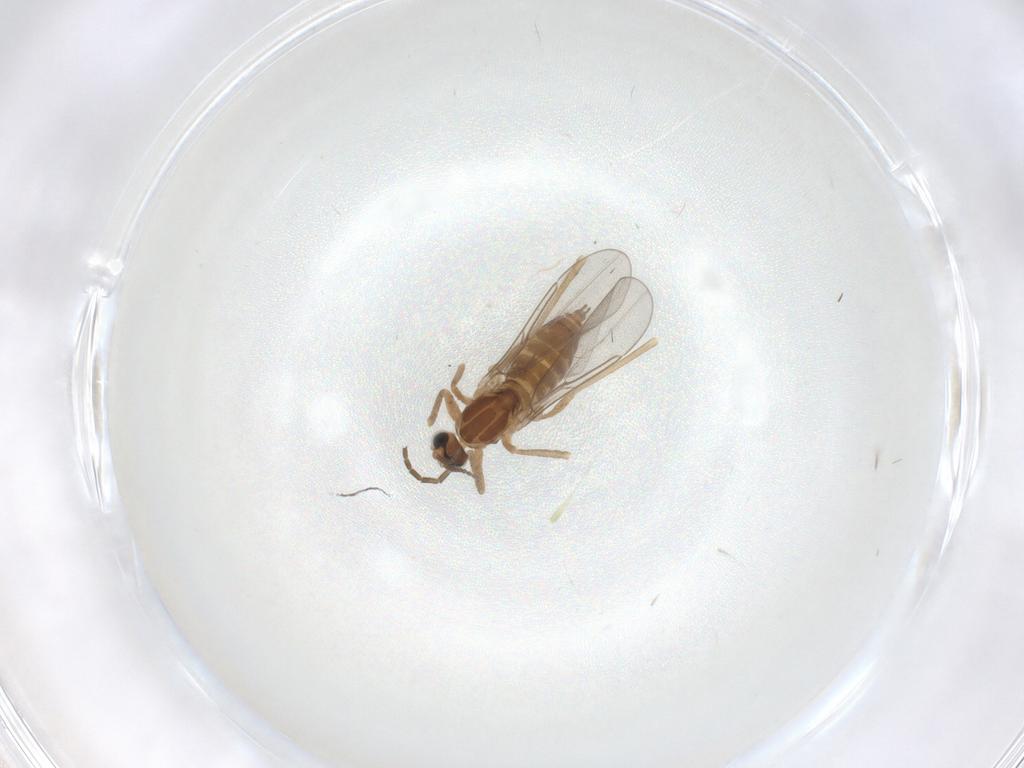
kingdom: Animalia
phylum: Arthropoda
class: Insecta
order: Diptera
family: Cecidomyiidae
